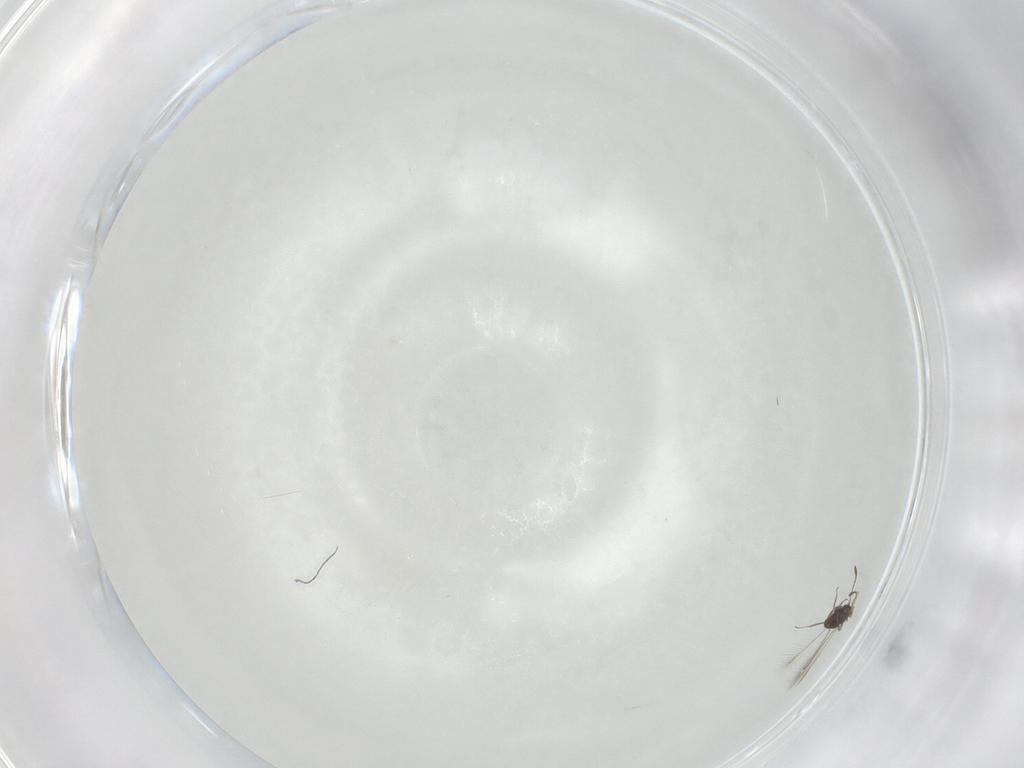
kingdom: Animalia
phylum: Arthropoda
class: Insecta
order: Hymenoptera
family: Mymaridae
